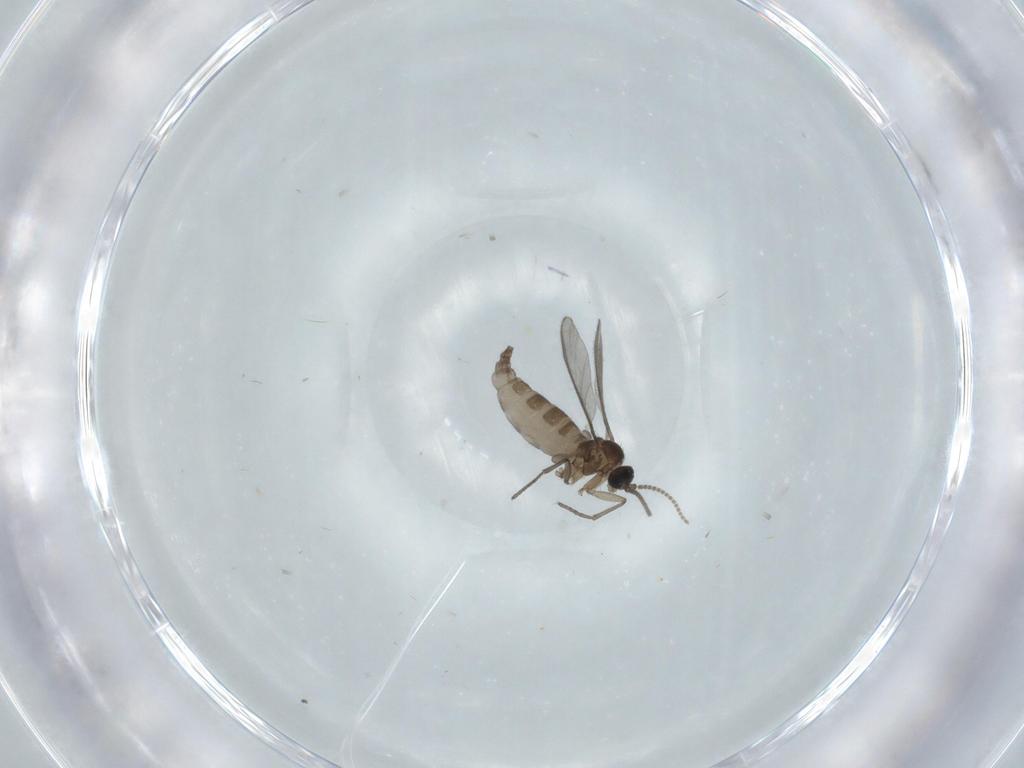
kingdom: Animalia
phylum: Arthropoda
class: Insecta
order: Diptera
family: Chironomidae
